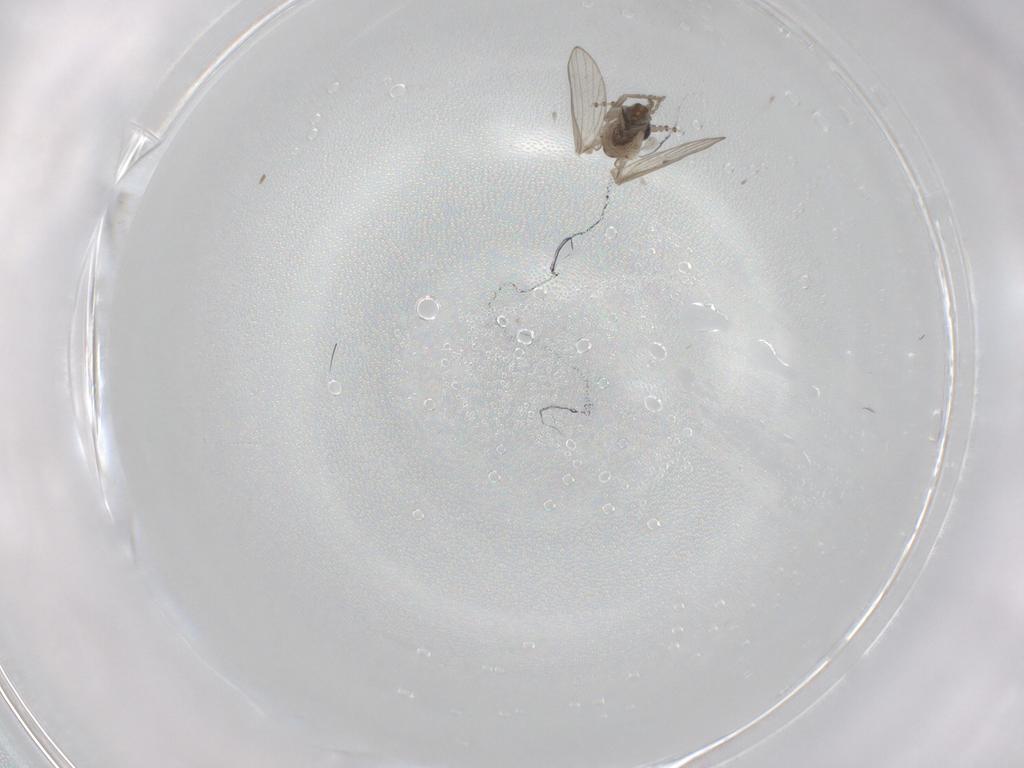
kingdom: Animalia
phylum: Arthropoda
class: Insecta
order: Diptera
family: Psychodidae
